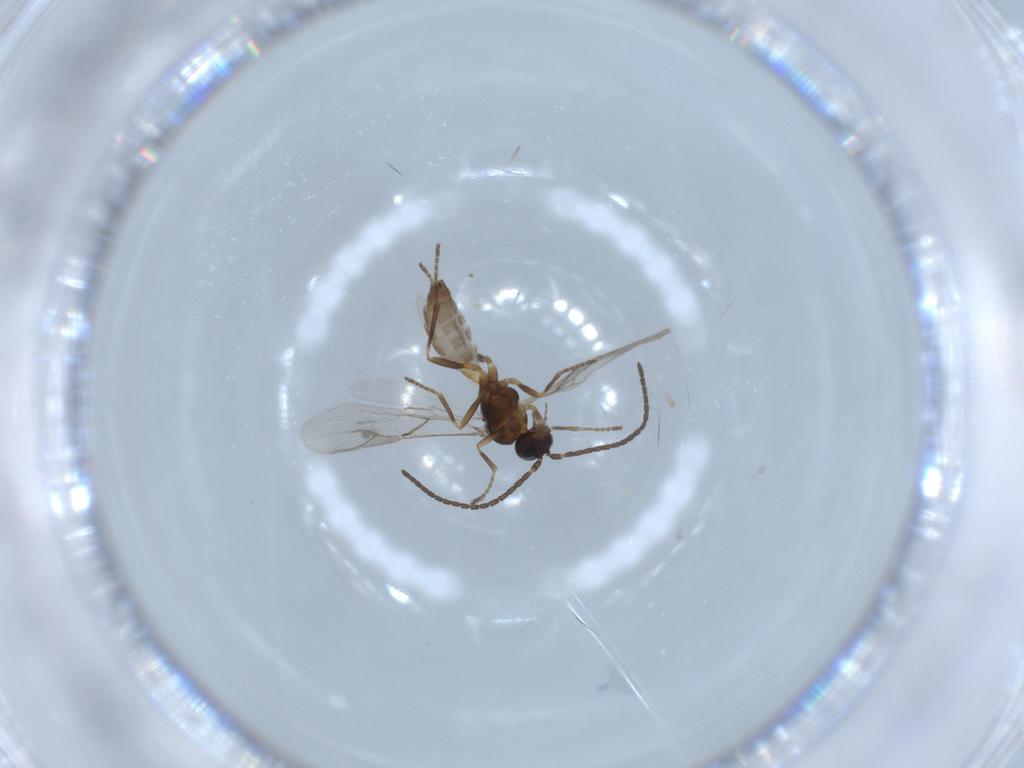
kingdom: Animalia
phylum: Arthropoda
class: Insecta
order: Hymenoptera
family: Braconidae
